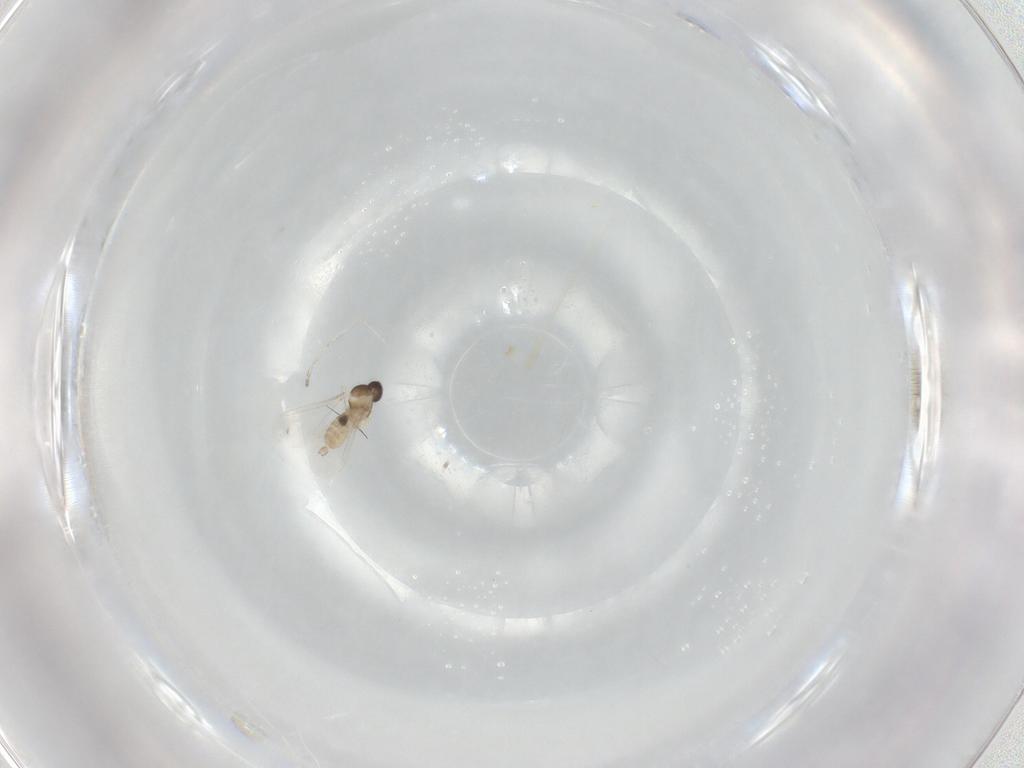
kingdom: Animalia
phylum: Arthropoda
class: Insecta
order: Diptera
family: Cecidomyiidae
